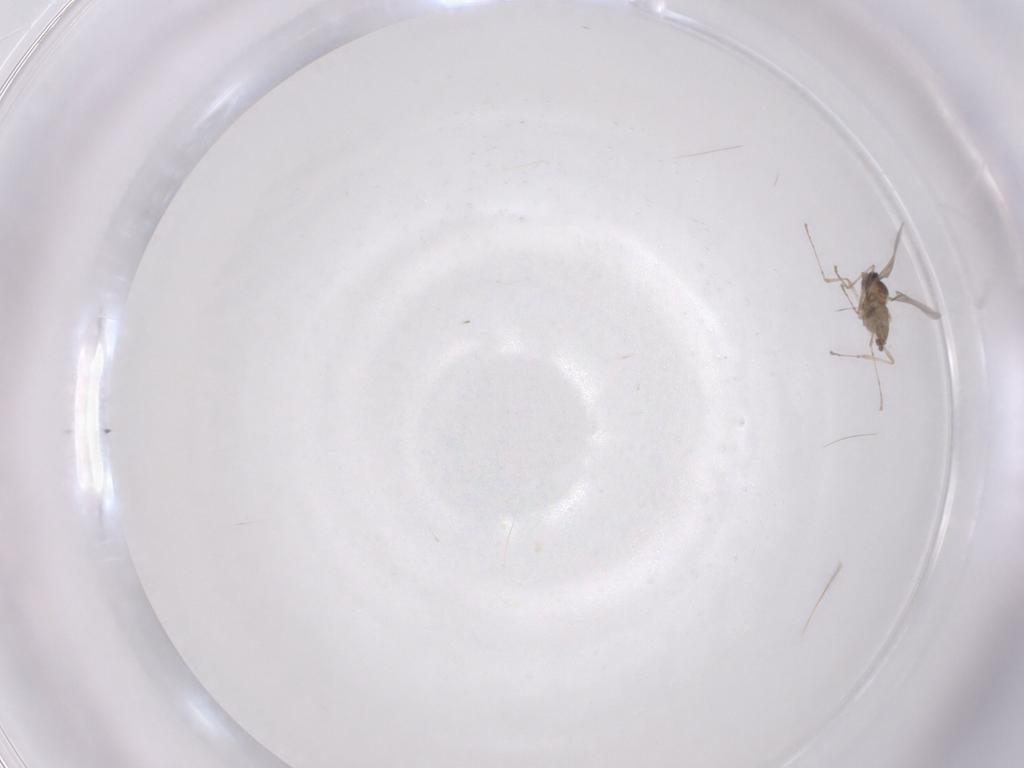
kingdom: Animalia
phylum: Arthropoda
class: Insecta
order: Hymenoptera
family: Mymaridae
